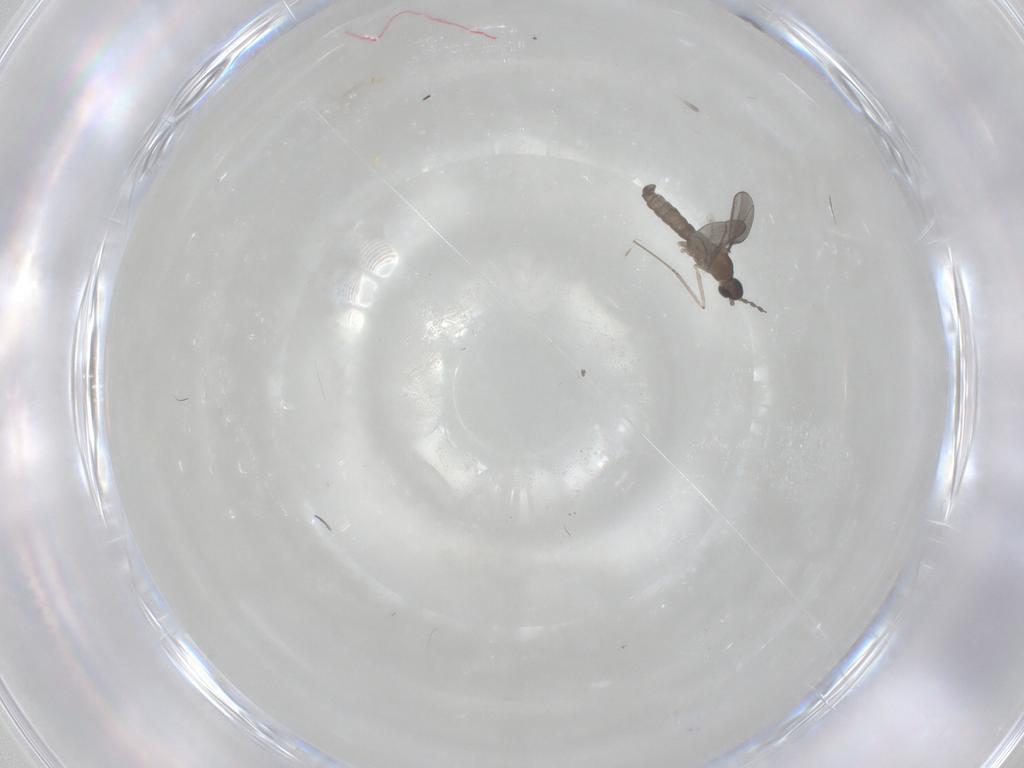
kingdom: Animalia
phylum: Arthropoda
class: Insecta
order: Diptera
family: Cecidomyiidae
